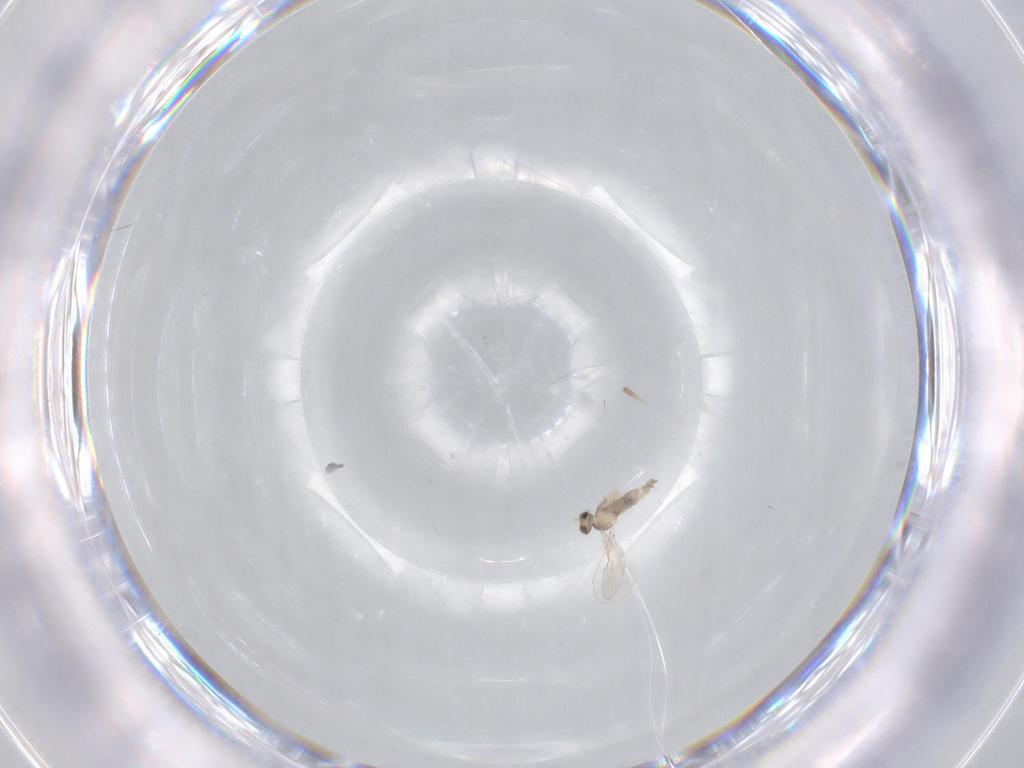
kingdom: Animalia
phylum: Arthropoda
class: Insecta
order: Diptera
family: Cecidomyiidae
